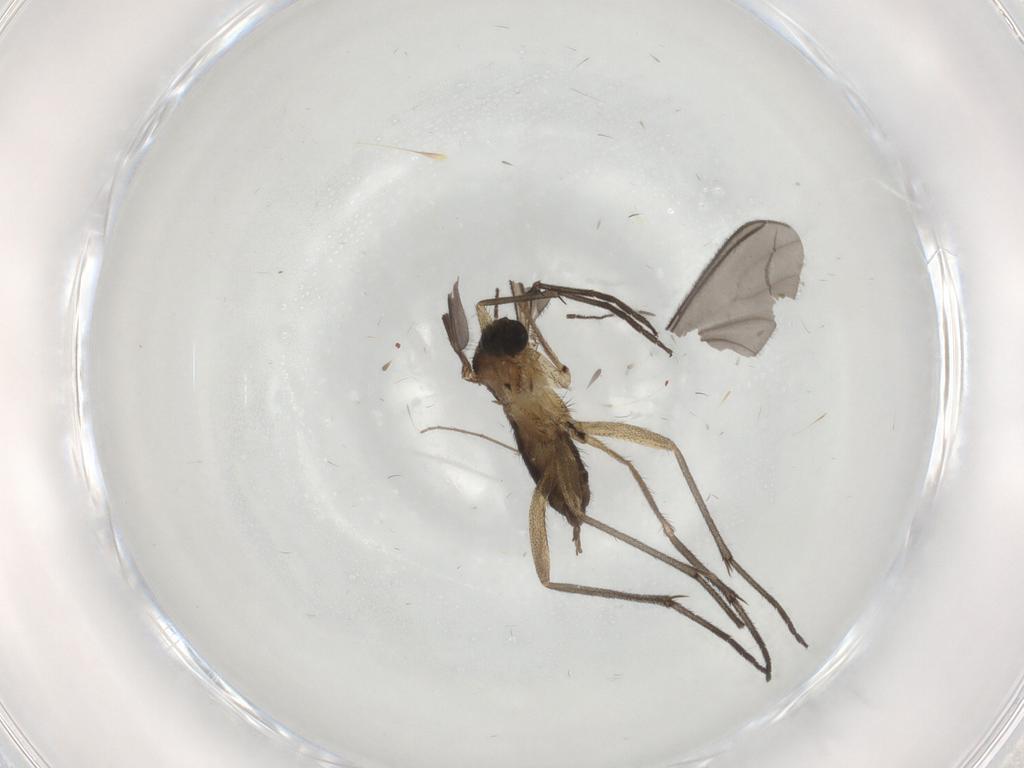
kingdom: Animalia
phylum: Arthropoda
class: Insecta
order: Diptera
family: Sciaridae
